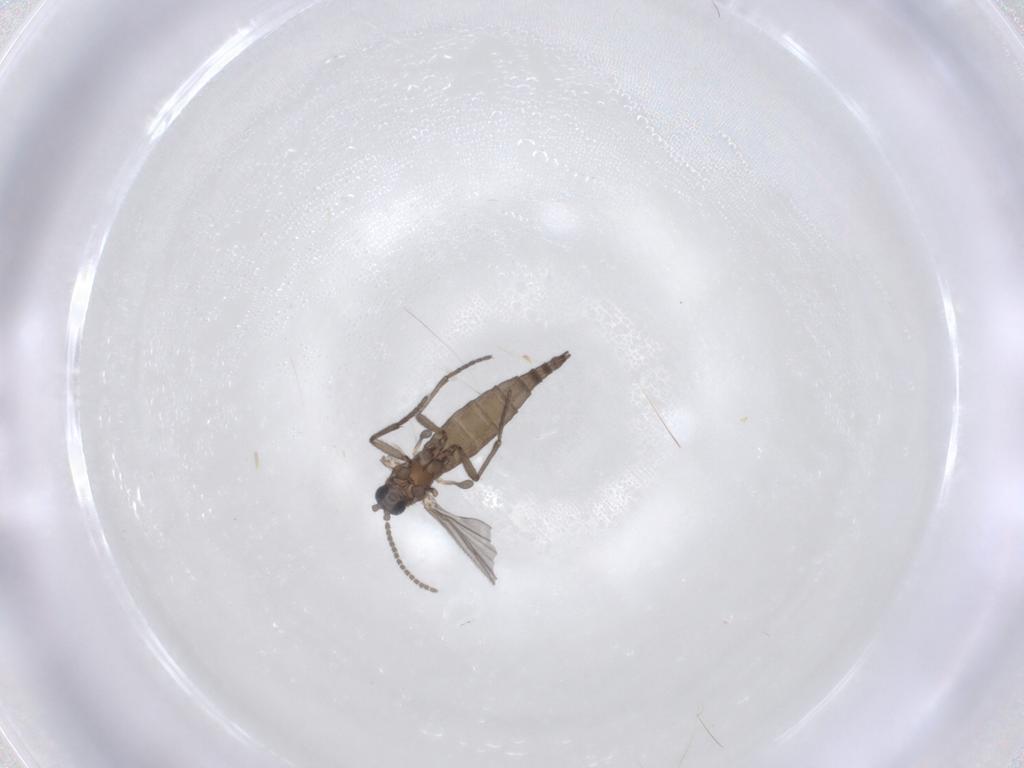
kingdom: Animalia
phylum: Arthropoda
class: Insecta
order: Diptera
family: Sciaridae
